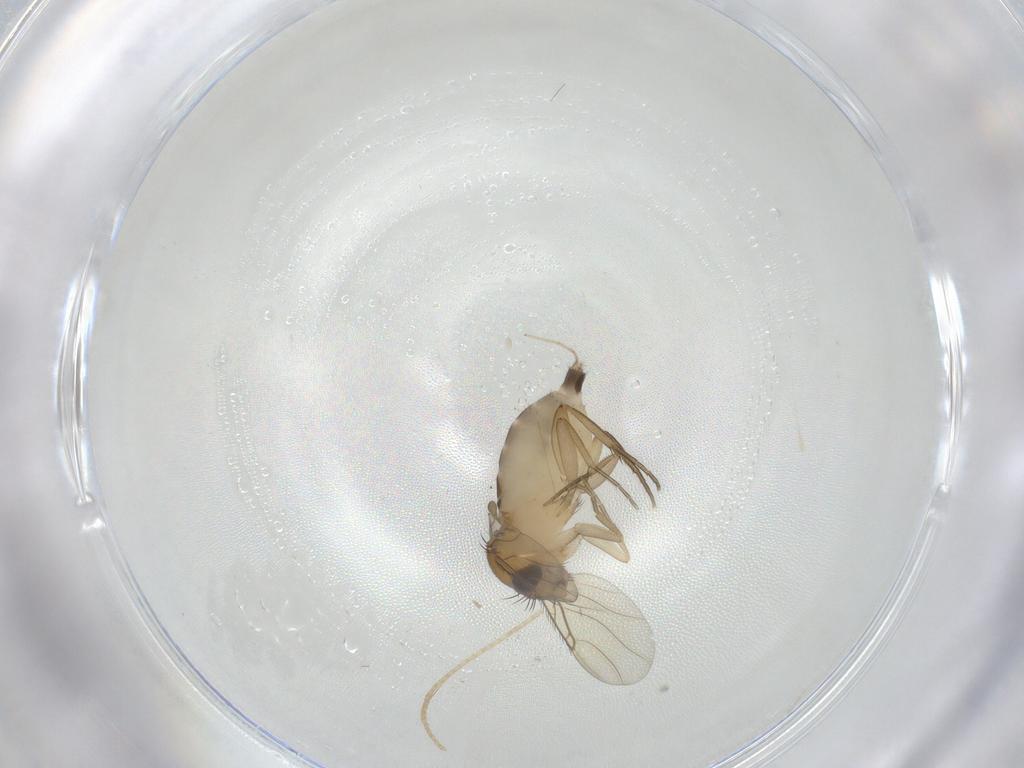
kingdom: Animalia
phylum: Arthropoda
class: Insecta
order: Diptera
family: Phoridae
